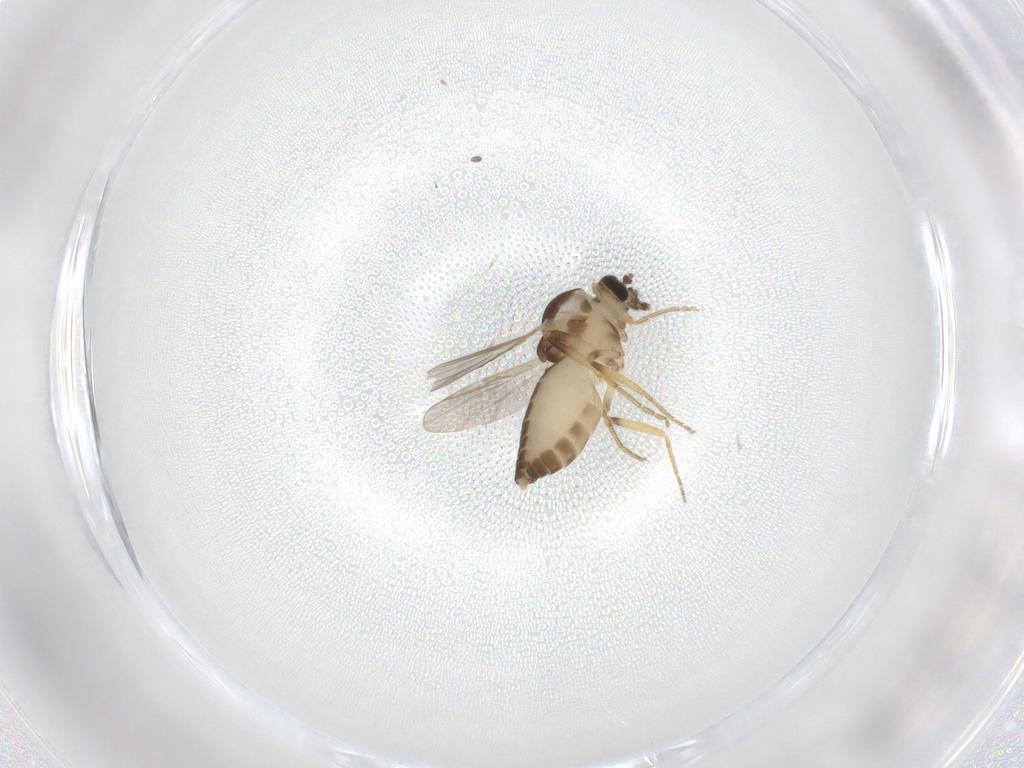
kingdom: Animalia
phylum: Arthropoda
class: Insecta
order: Diptera
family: Ceratopogonidae
